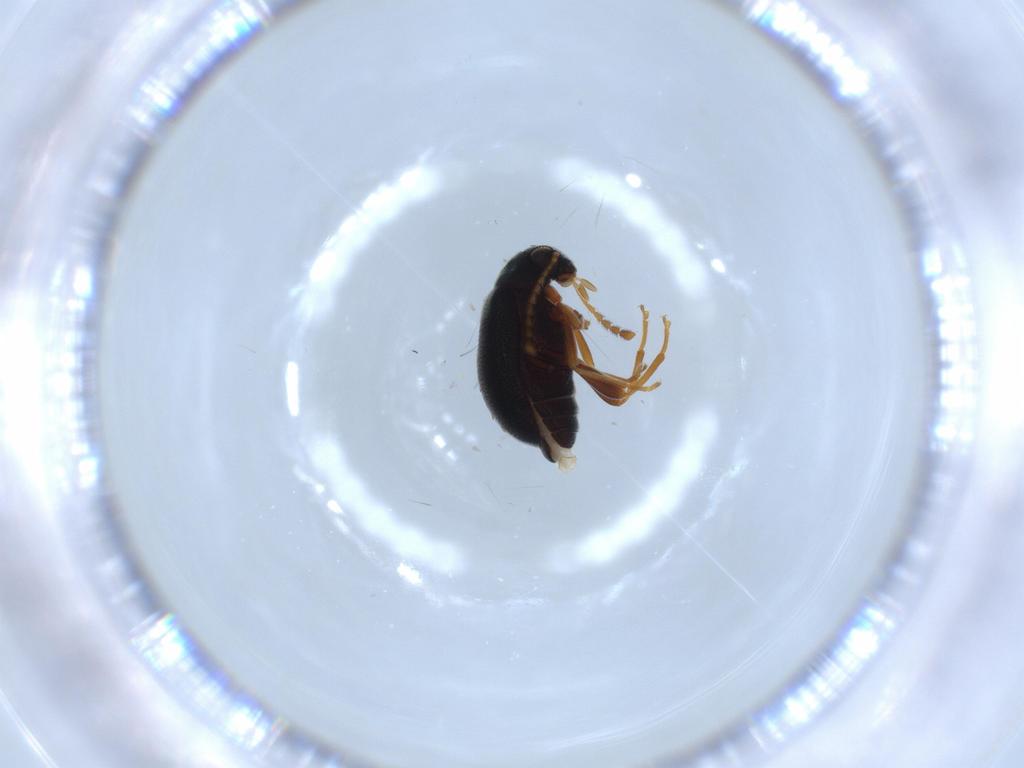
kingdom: Animalia
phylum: Arthropoda
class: Insecta
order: Coleoptera
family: Aderidae
